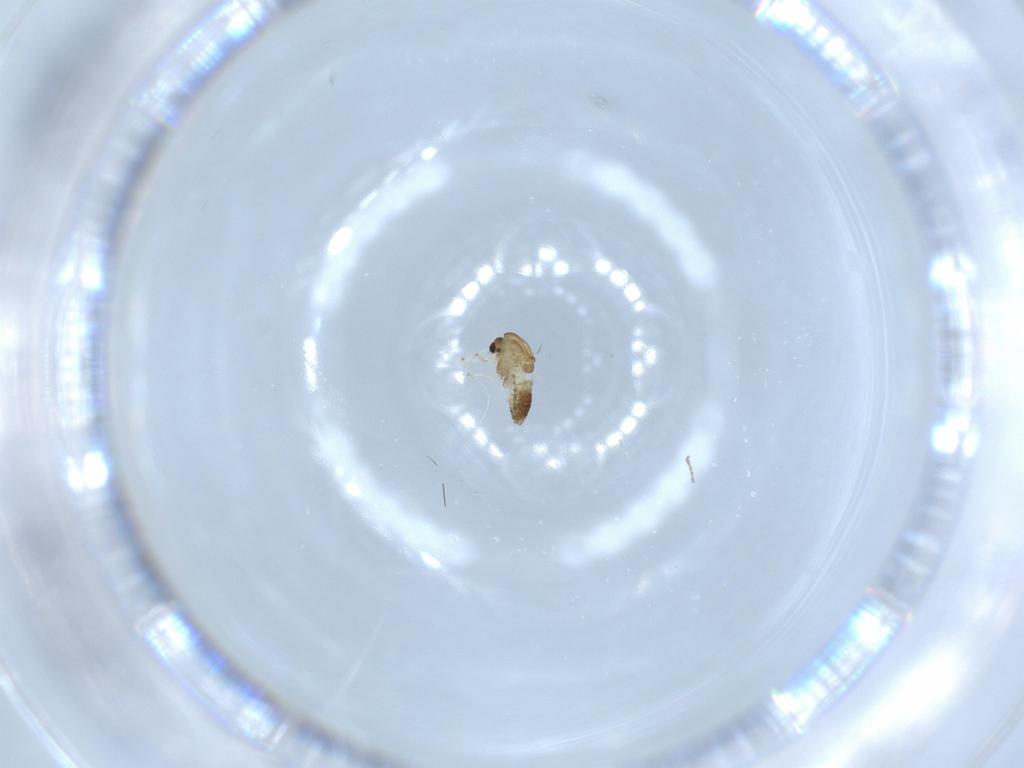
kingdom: Animalia
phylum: Arthropoda
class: Insecta
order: Diptera
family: Chironomidae
